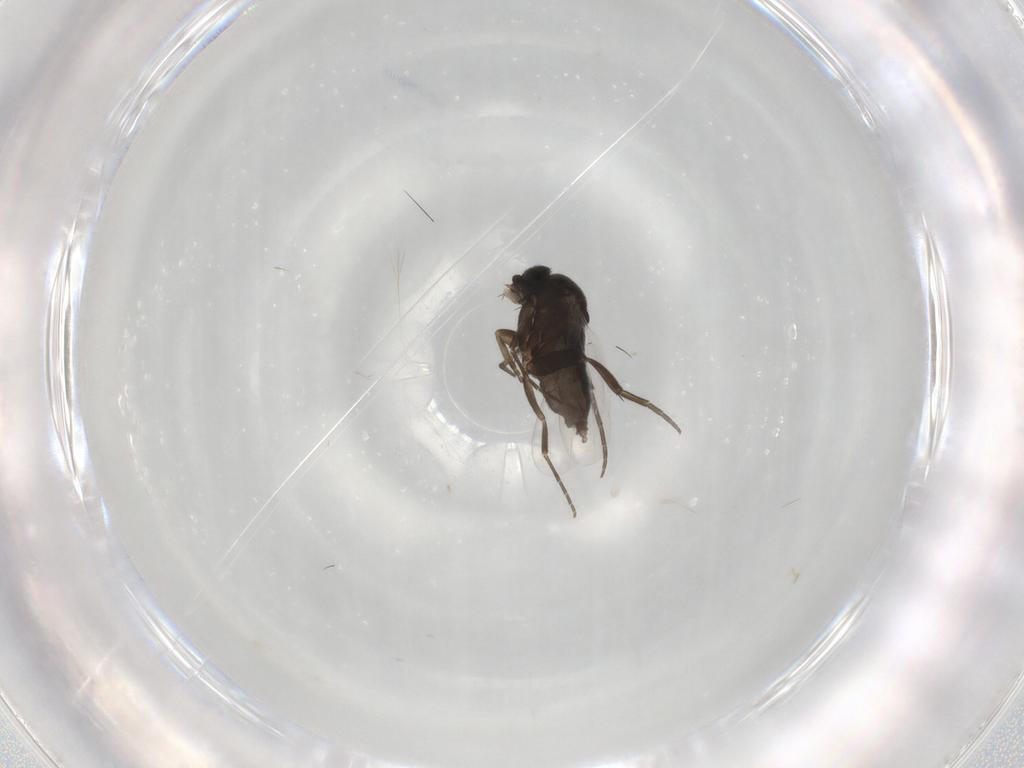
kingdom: Animalia
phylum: Arthropoda
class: Insecta
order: Diptera
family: Phoridae
